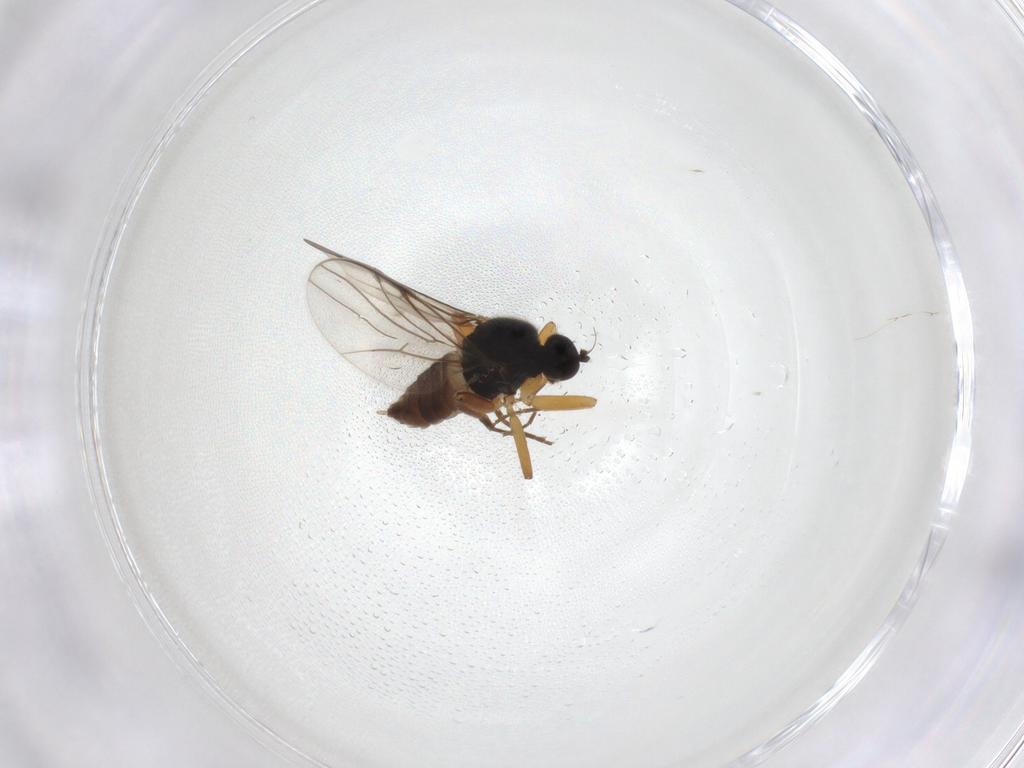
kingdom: Animalia
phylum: Arthropoda
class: Insecta
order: Diptera
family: Hybotidae
